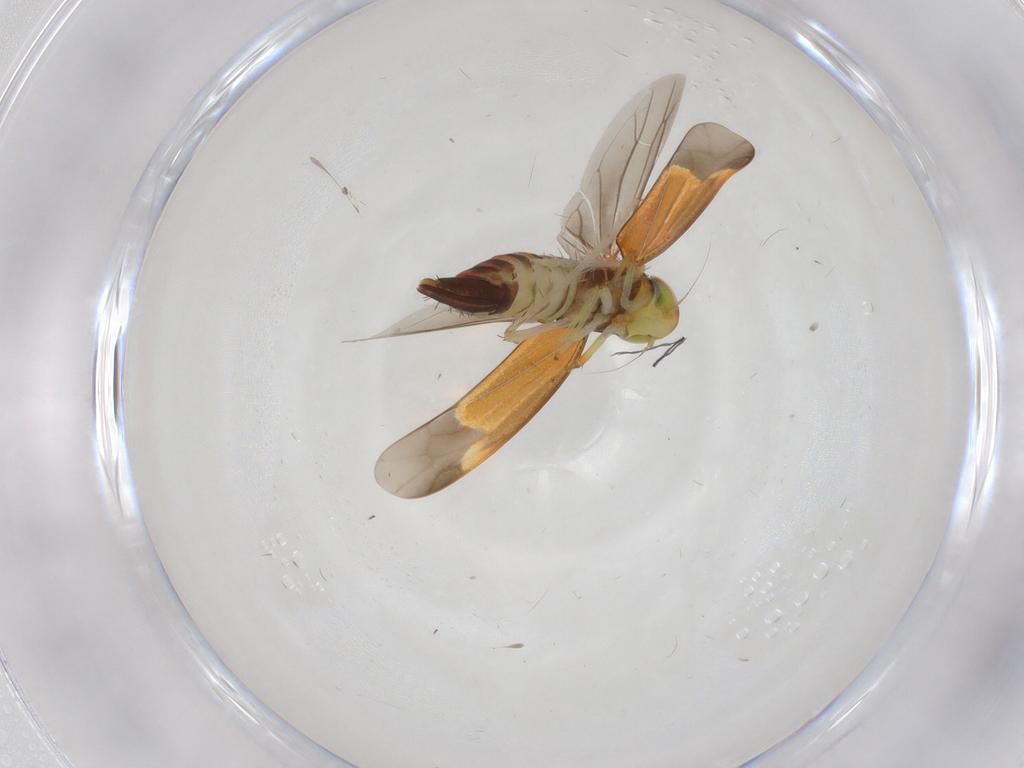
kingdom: Animalia
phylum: Arthropoda
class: Insecta
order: Hemiptera
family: Cicadellidae
